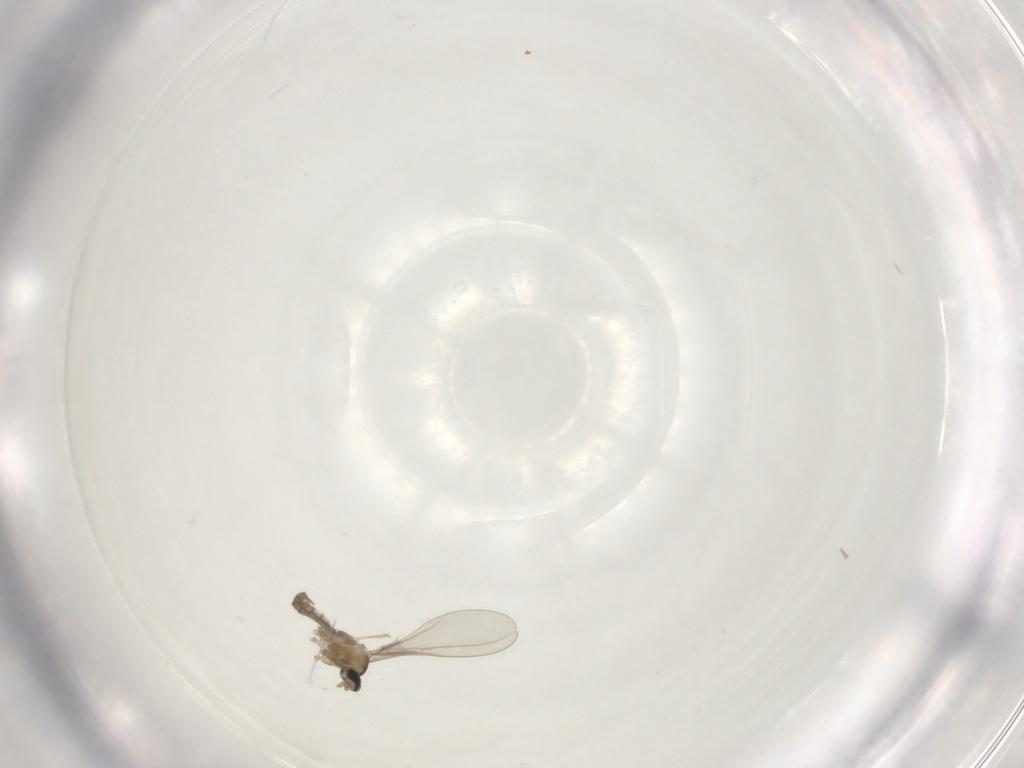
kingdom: Animalia
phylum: Arthropoda
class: Insecta
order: Diptera
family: Cecidomyiidae
